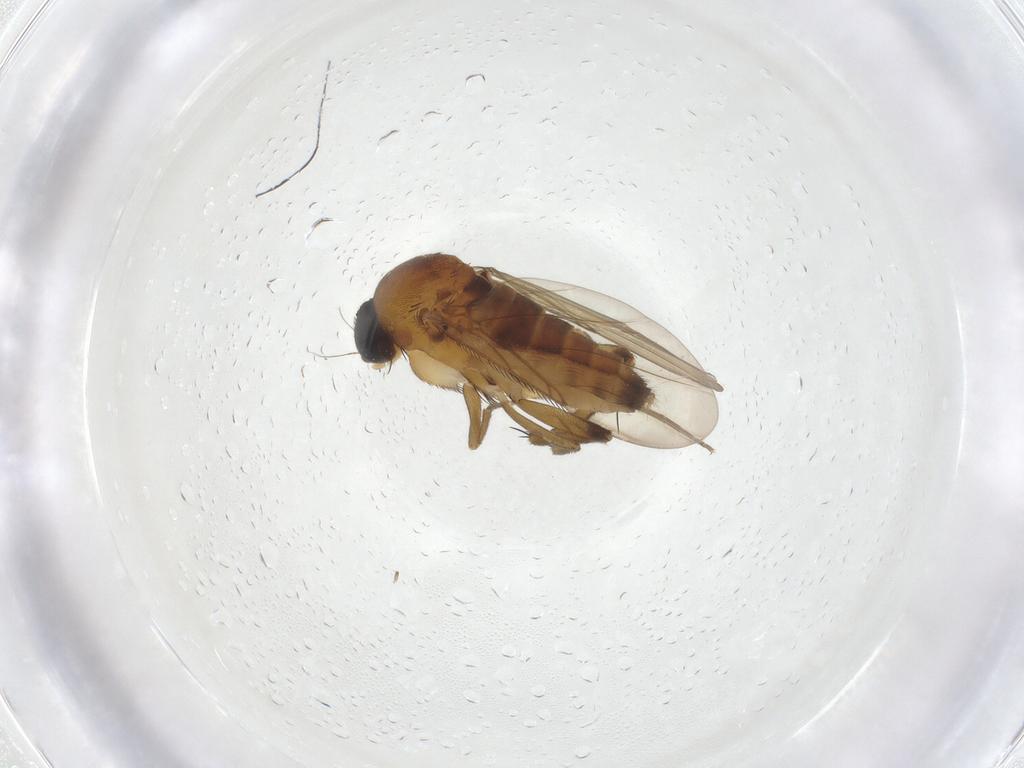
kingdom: Animalia
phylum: Arthropoda
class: Insecta
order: Diptera
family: Phoridae
